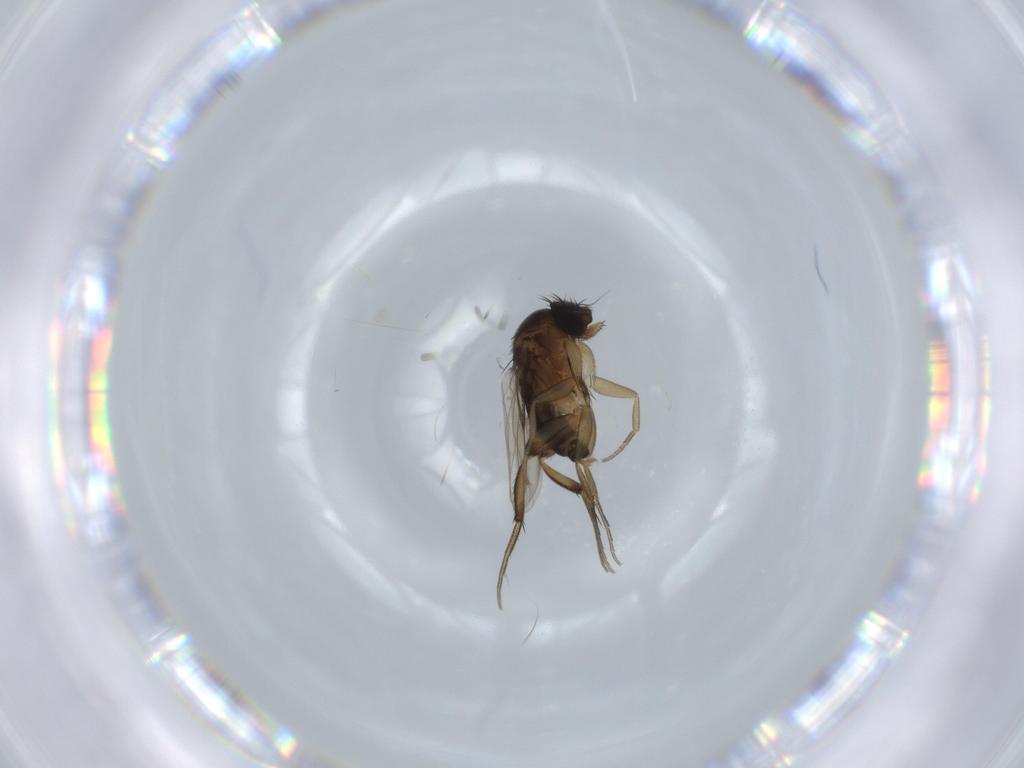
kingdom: Animalia
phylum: Arthropoda
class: Insecta
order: Diptera
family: Phoridae
